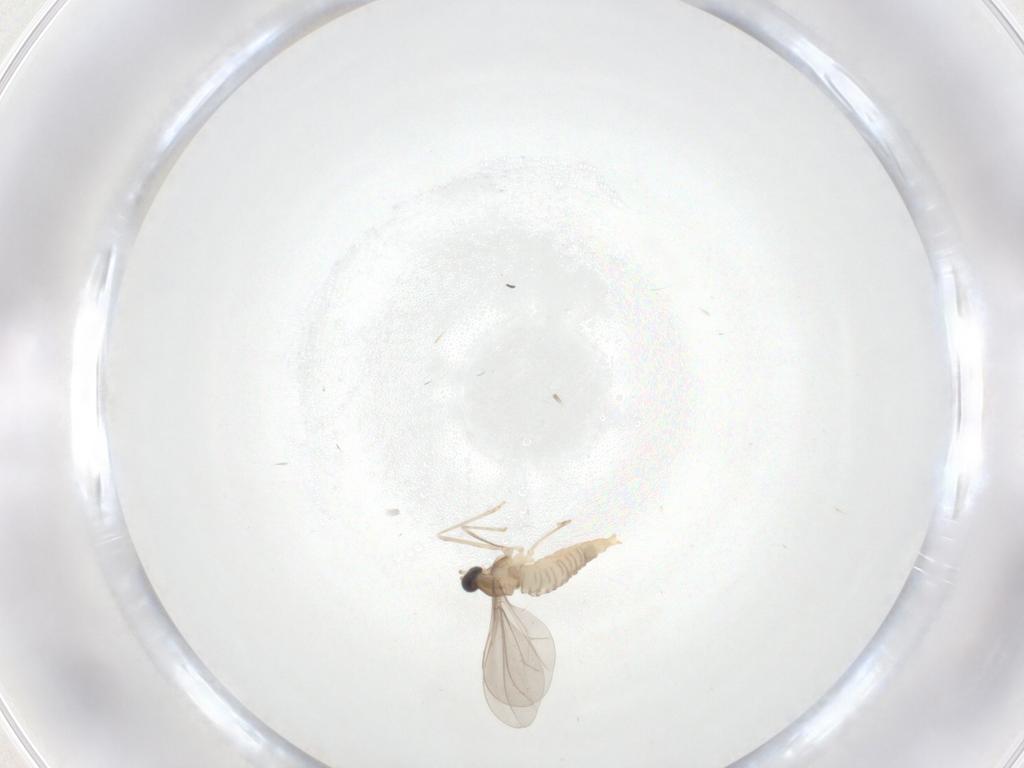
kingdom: Animalia
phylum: Arthropoda
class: Insecta
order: Diptera
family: Cecidomyiidae
